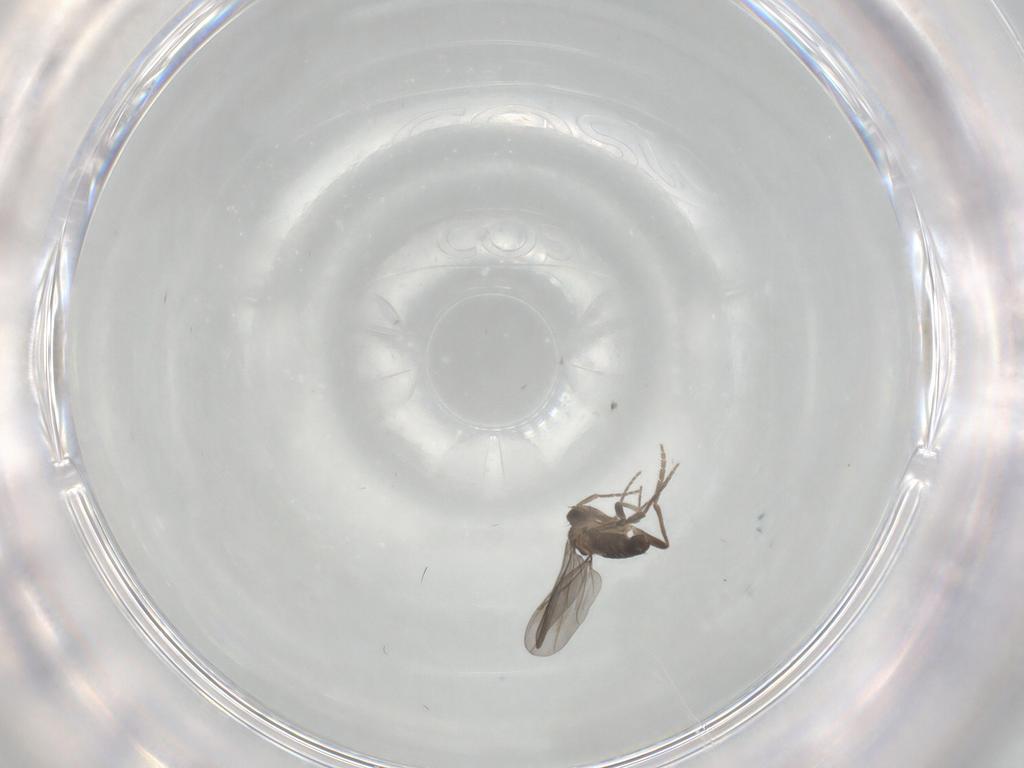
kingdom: Animalia
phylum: Arthropoda
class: Insecta
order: Diptera
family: Phoridae
